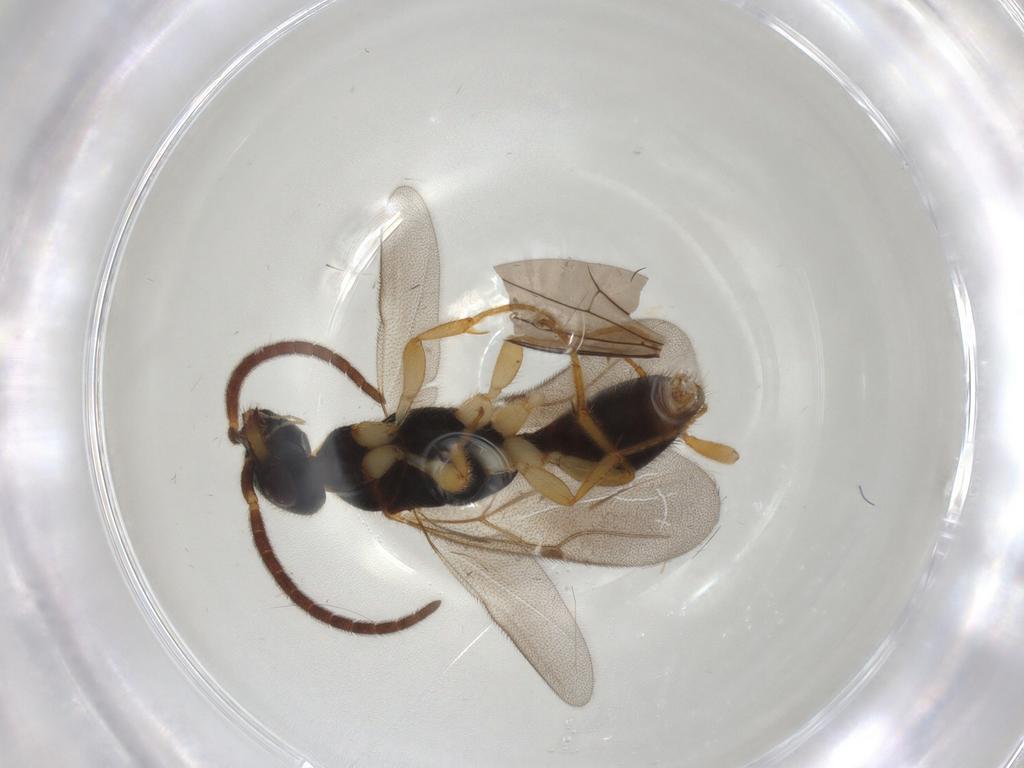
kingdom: Animalia
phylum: Arthropoda
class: Insecta
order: Hymenoptera
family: Bethylidae
